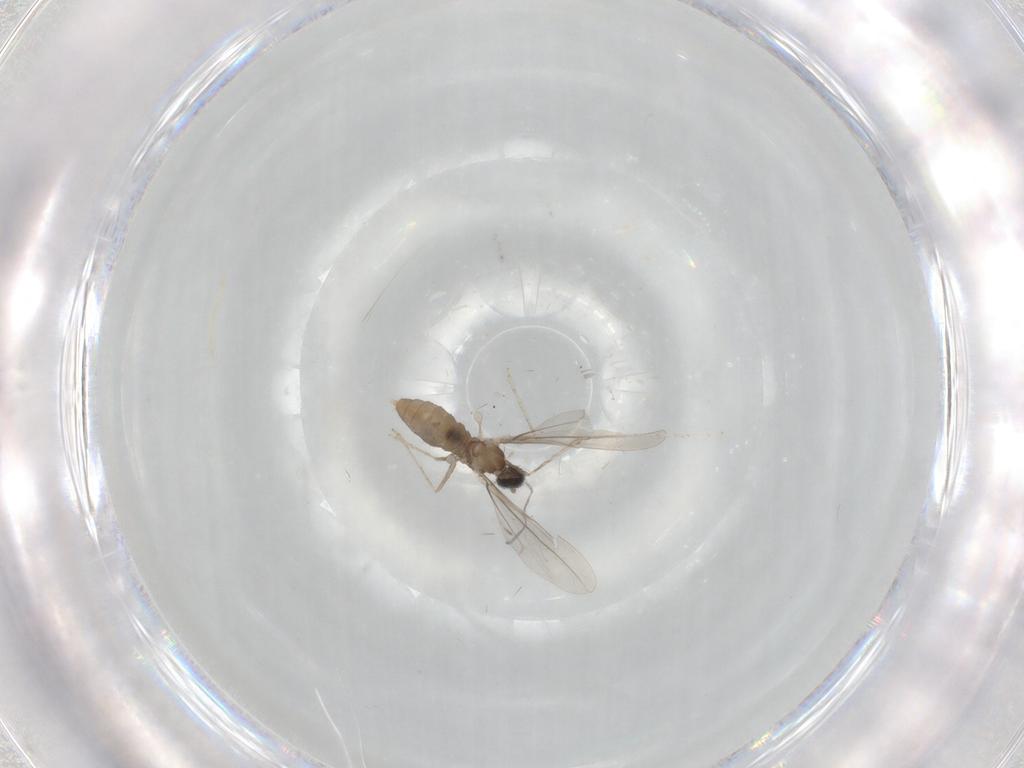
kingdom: Animalia
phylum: Arthropoda
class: Insecta
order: Diptera
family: Cecidomyiidae
